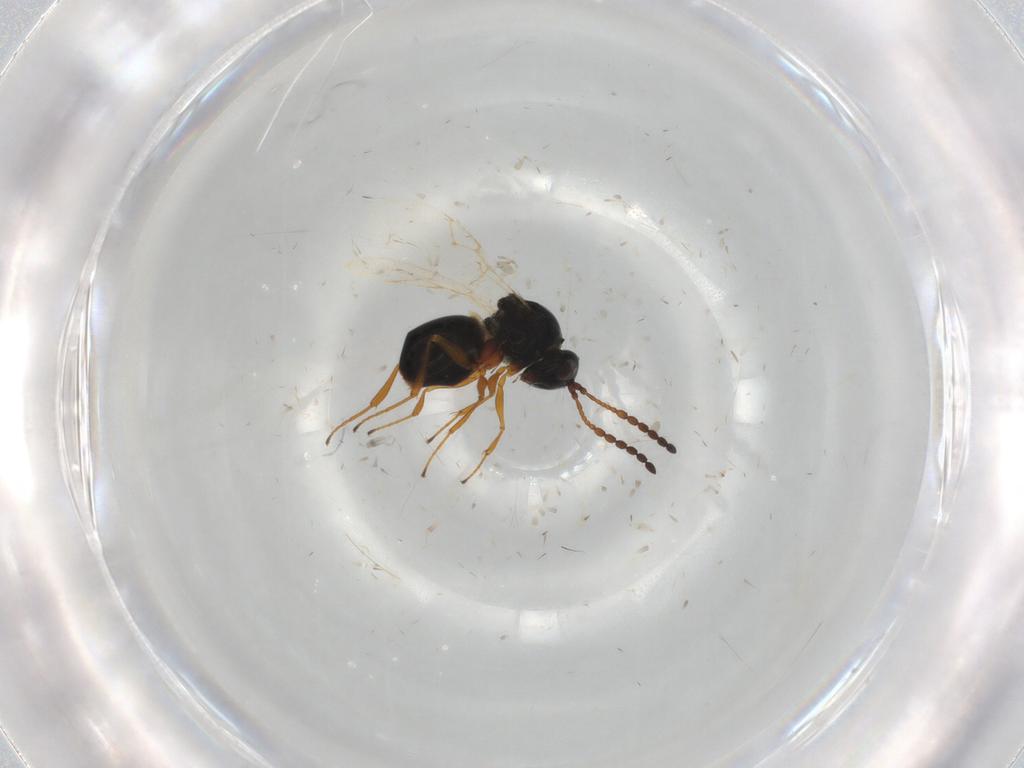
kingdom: Animalia
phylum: Arthropoda
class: Insecta
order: Hymenoptera
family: Figitidae
